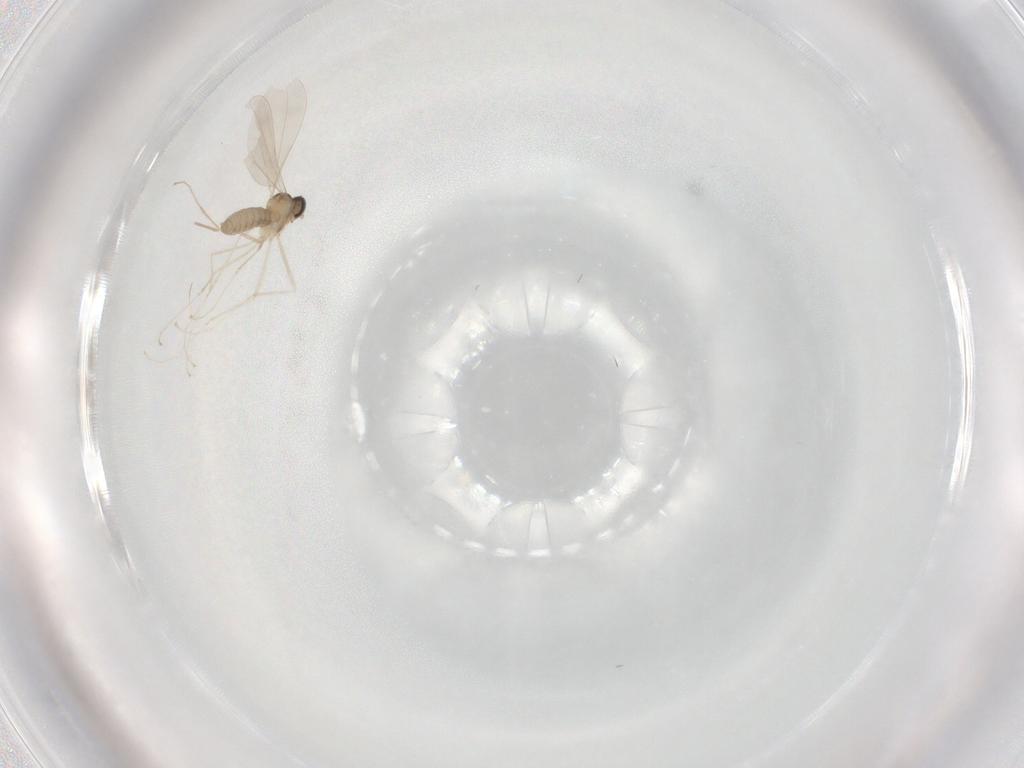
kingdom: Animalia
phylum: Arthropoda
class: Insecta
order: Diptera
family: Cecidomyiidae
